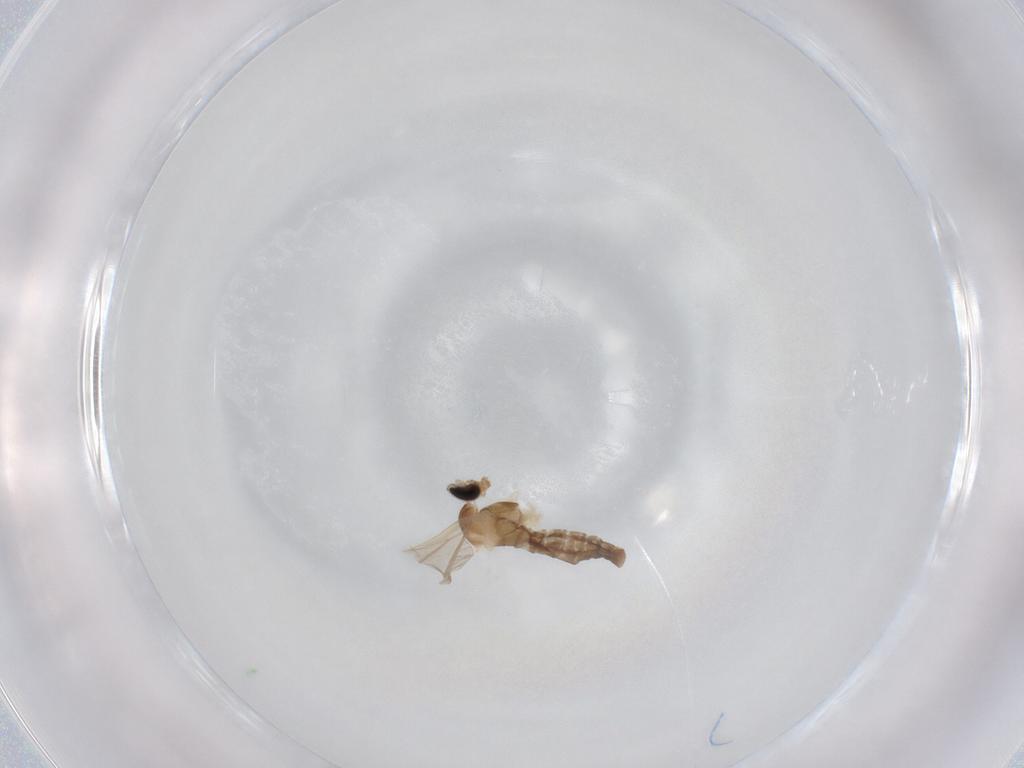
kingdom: Animalia
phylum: Arthropoda
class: Insecta
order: Diptera
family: Cecidomyiidae
